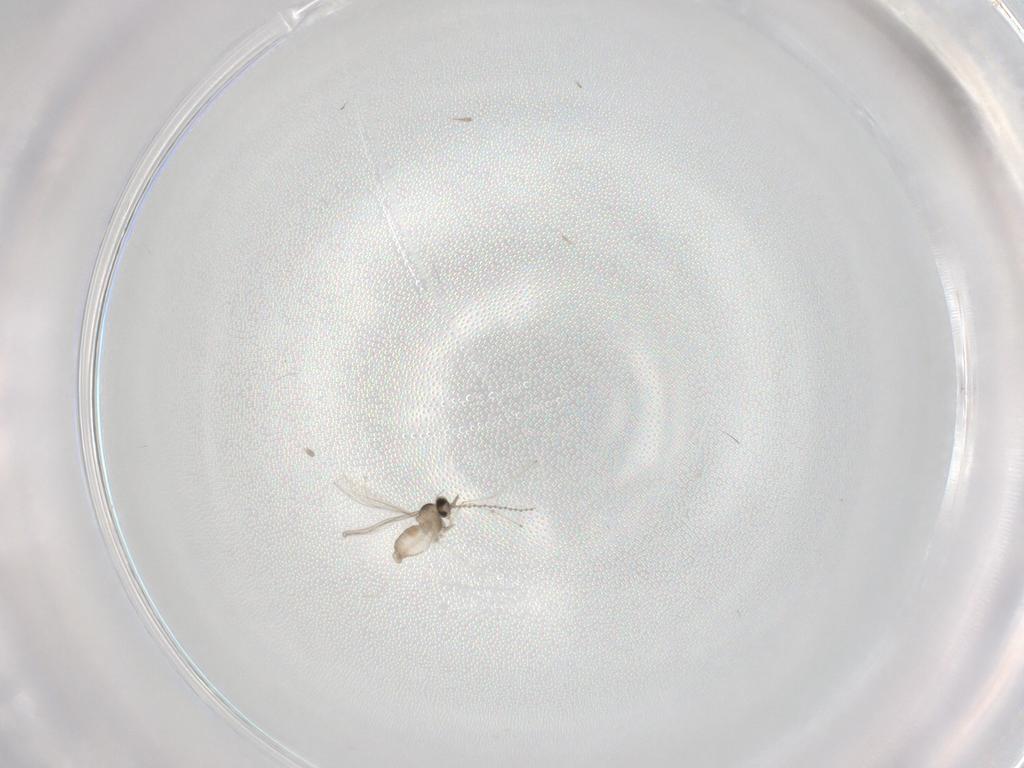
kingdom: Animalia
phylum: Arthropoda
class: Insecta
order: Diptera
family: Cecidomyiidae
